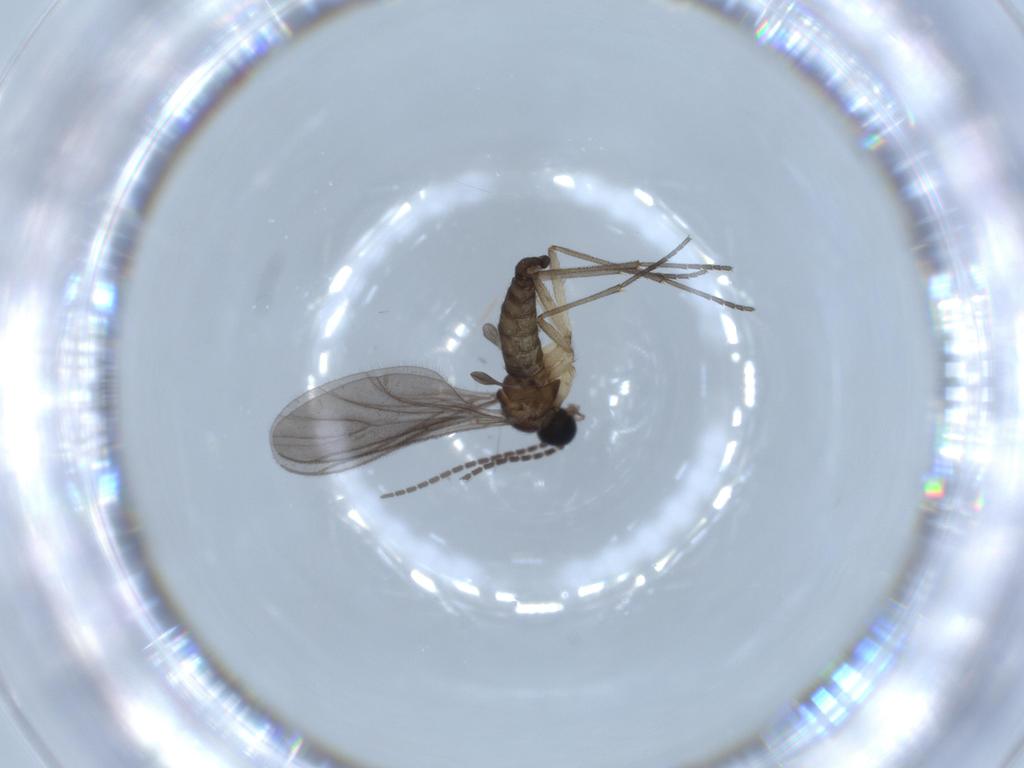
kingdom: Animalia
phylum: Arthropoda
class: Insecta
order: Diptera
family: Sciaridae
